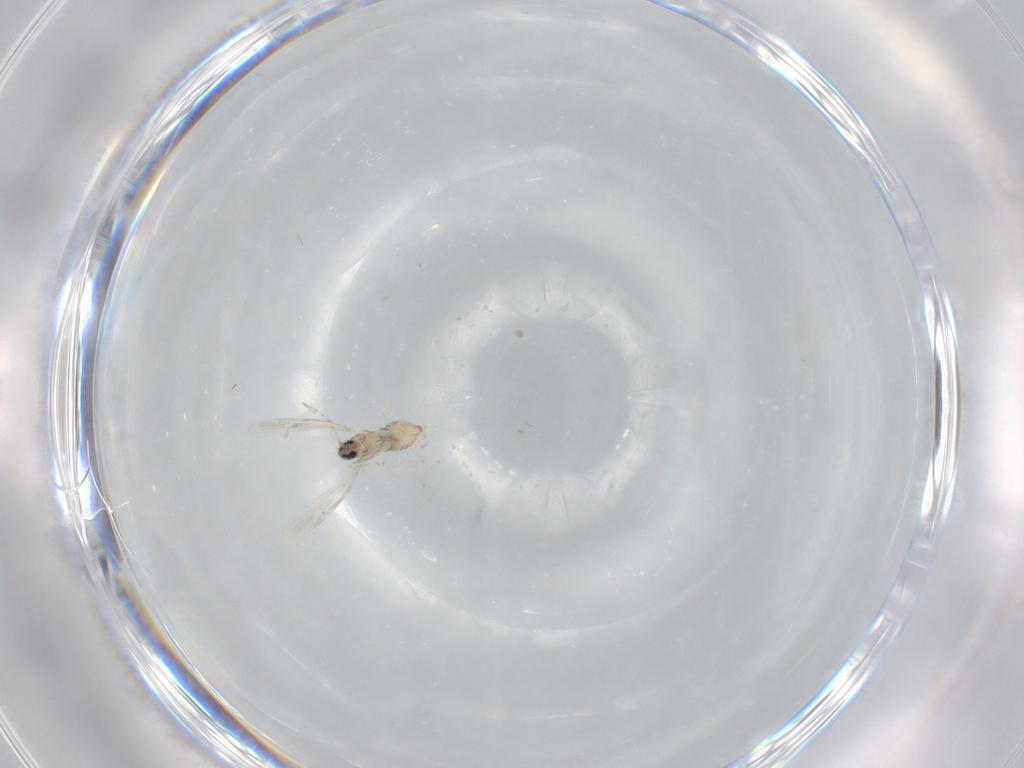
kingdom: Animalia
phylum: Arthropoda
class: Insecta
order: Diptera
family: Cecidomyiidae
